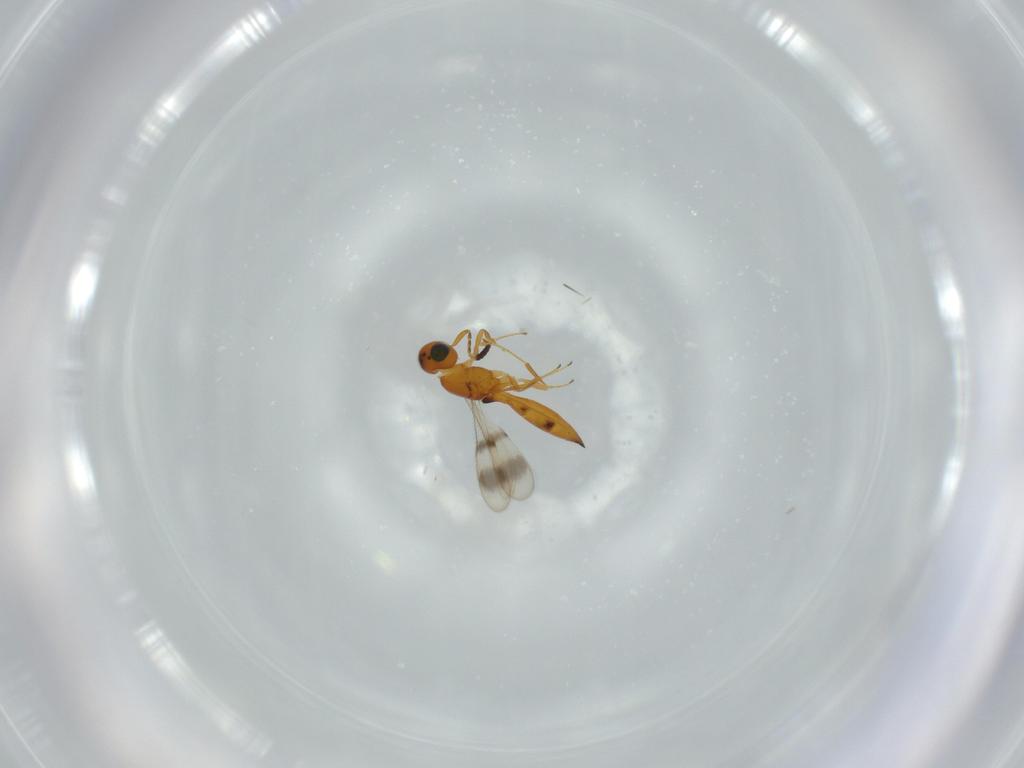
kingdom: Animalia
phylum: Arthropoda
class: Insecta
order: Hymenoptera
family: Scelionidae
